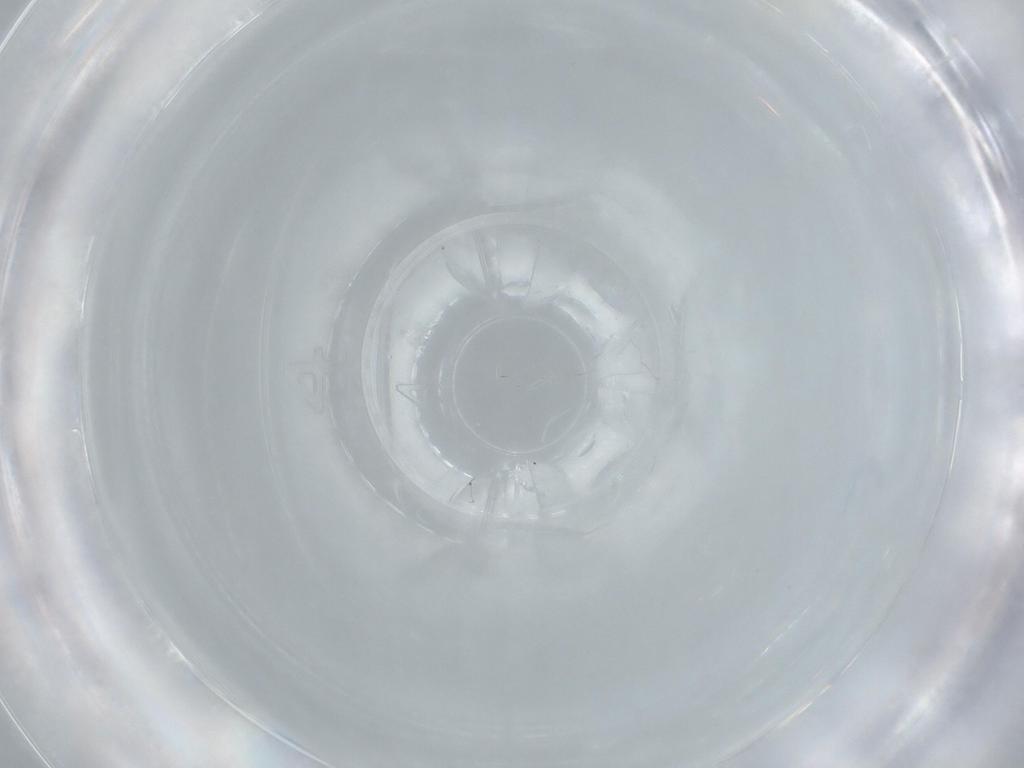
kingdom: Animalia
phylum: Arthropoda
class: Insecta
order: Diptera
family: Cecidomyiidae
